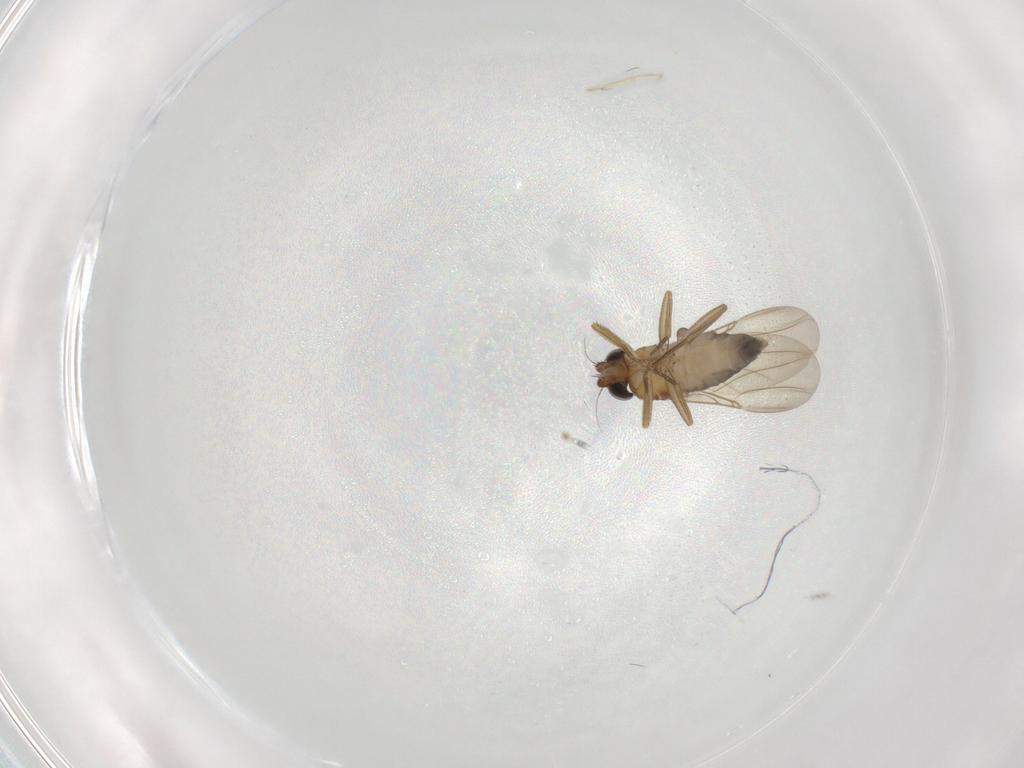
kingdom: Animalia
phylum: Arthropoda
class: Insecta
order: Diptera
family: Phoridae
